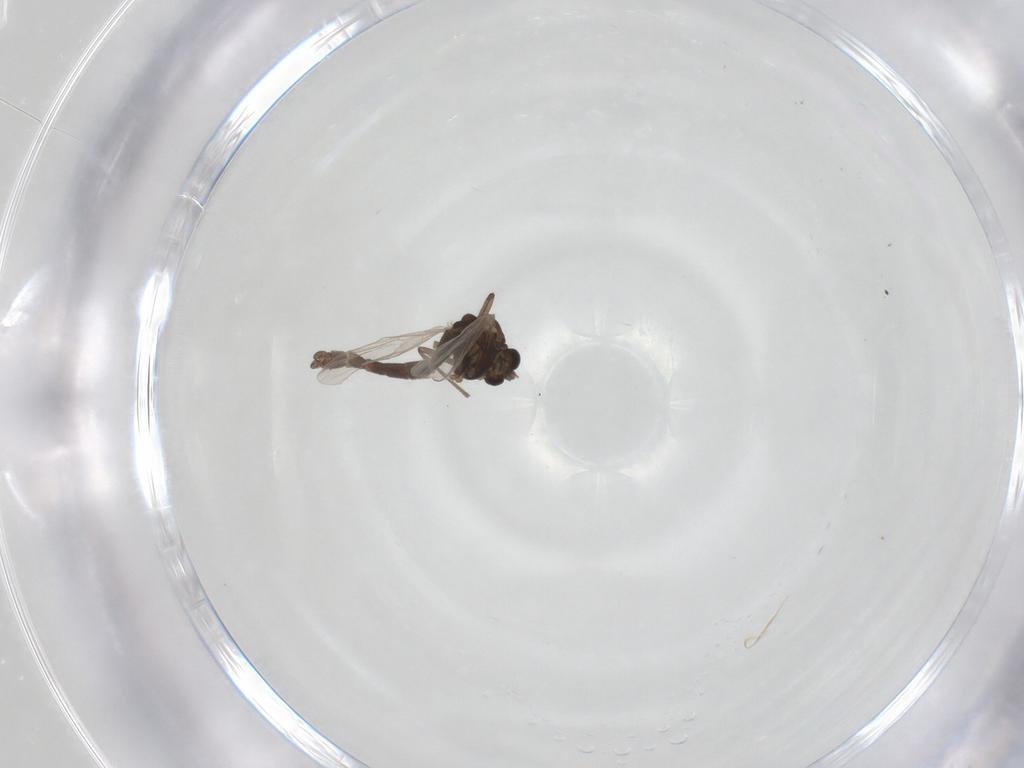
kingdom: Animalia
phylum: Arthropoda
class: Insecta
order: Diptera
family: Chironomidae
